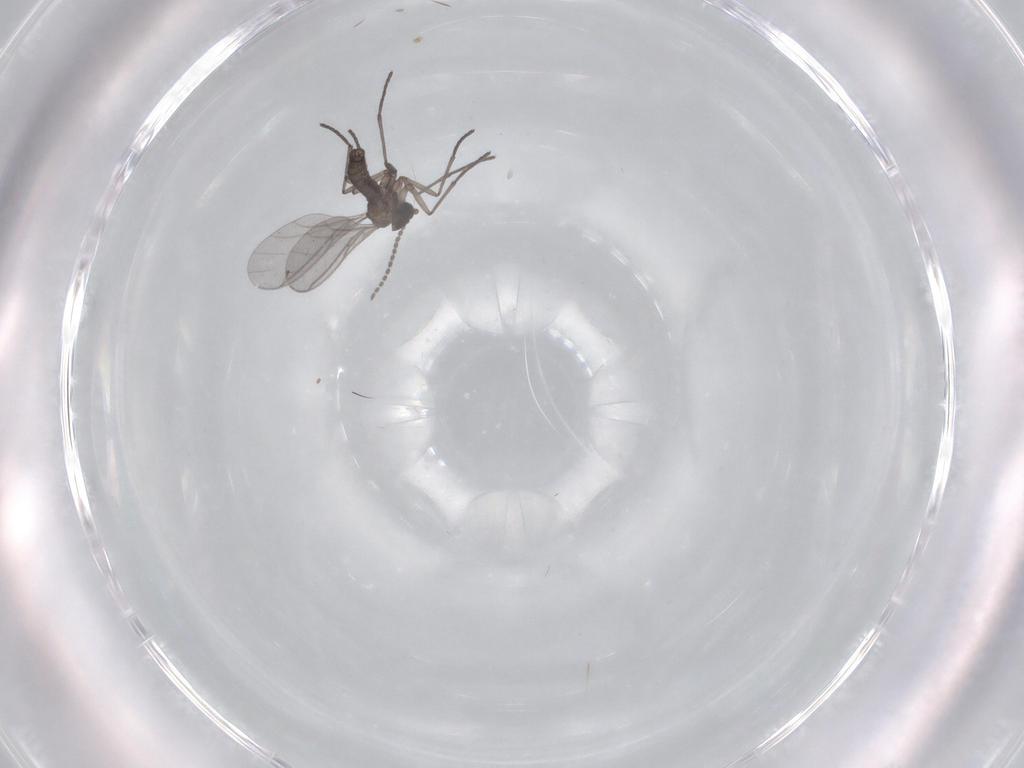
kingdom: Animalia
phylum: Arthropoda
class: Insecta
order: Diptera
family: Sciaridae
